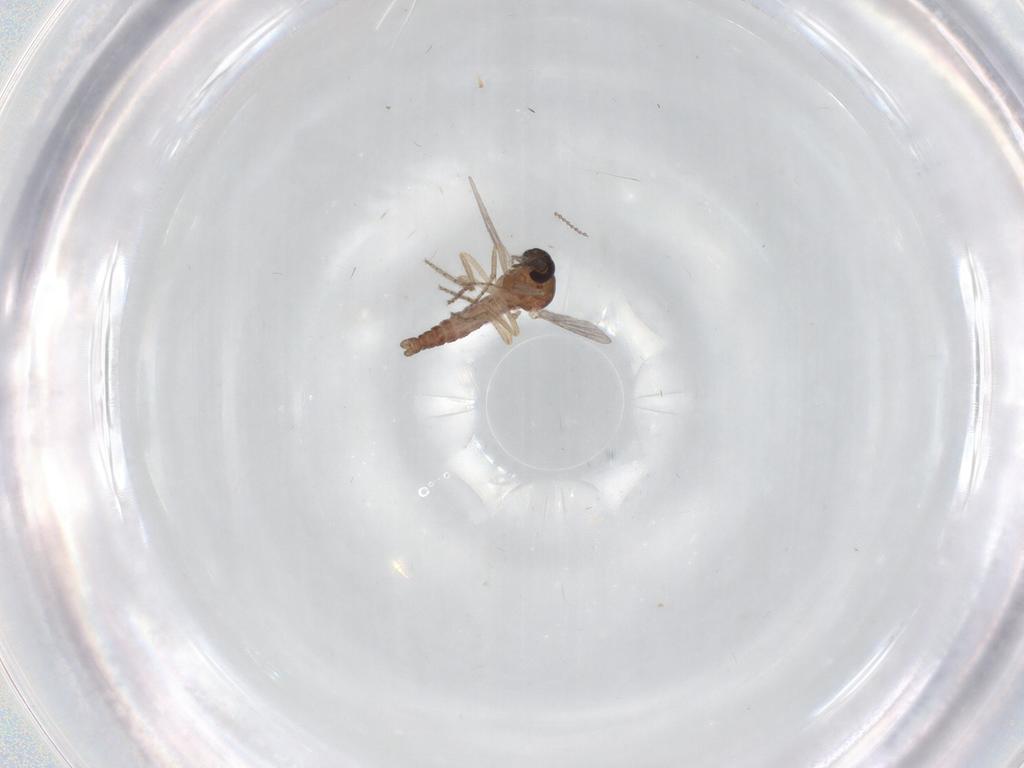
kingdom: Animalia
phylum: Arthropoda
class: Insecta
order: Diptera
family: Ceratopogonidae
